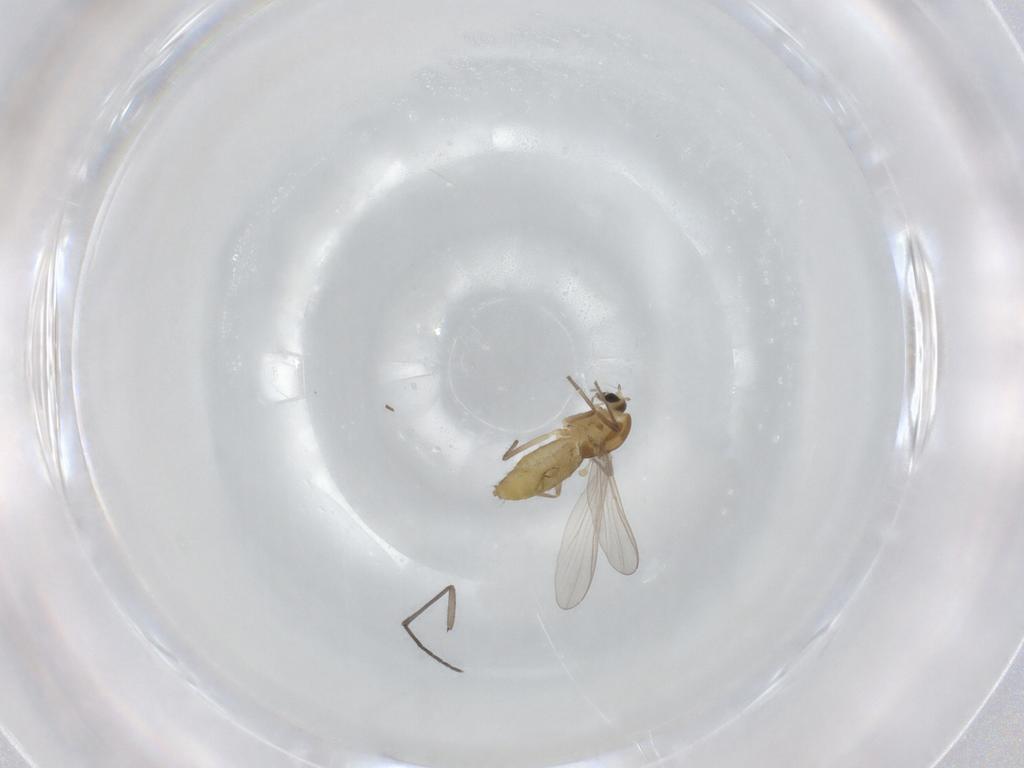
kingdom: Animalia
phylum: Arthropoda
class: Insecta
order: Diptera
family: Chironomidae
